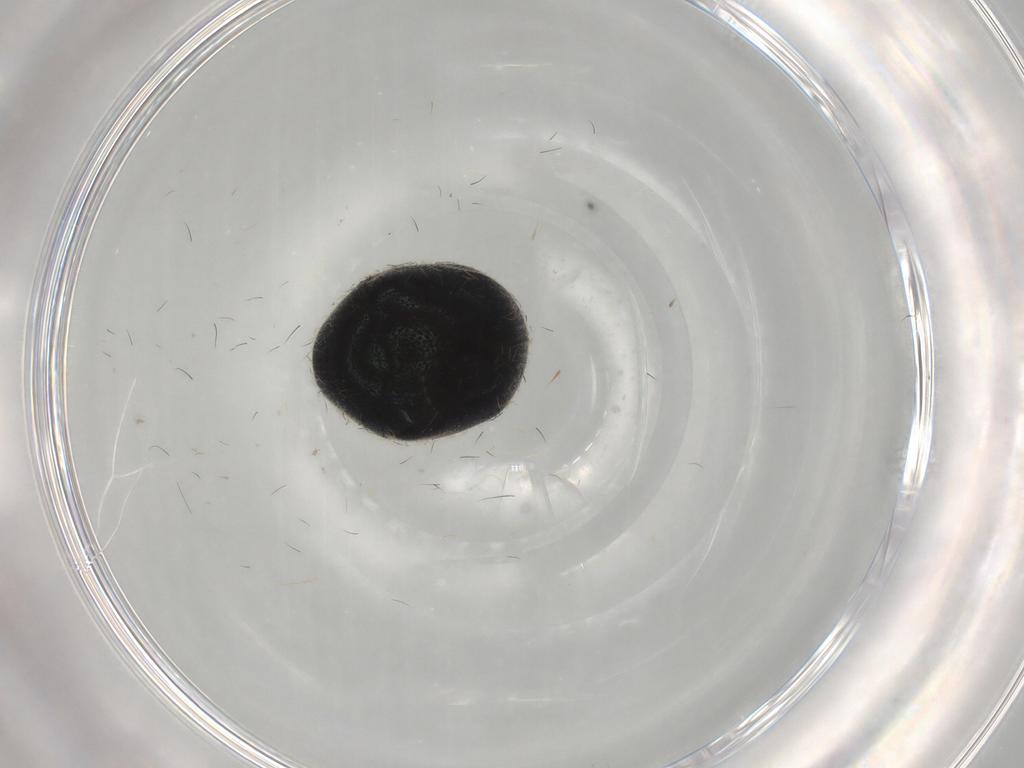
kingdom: Animalia
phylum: Arthropoda
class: Insecta
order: Coleoptera
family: Ptinidae
